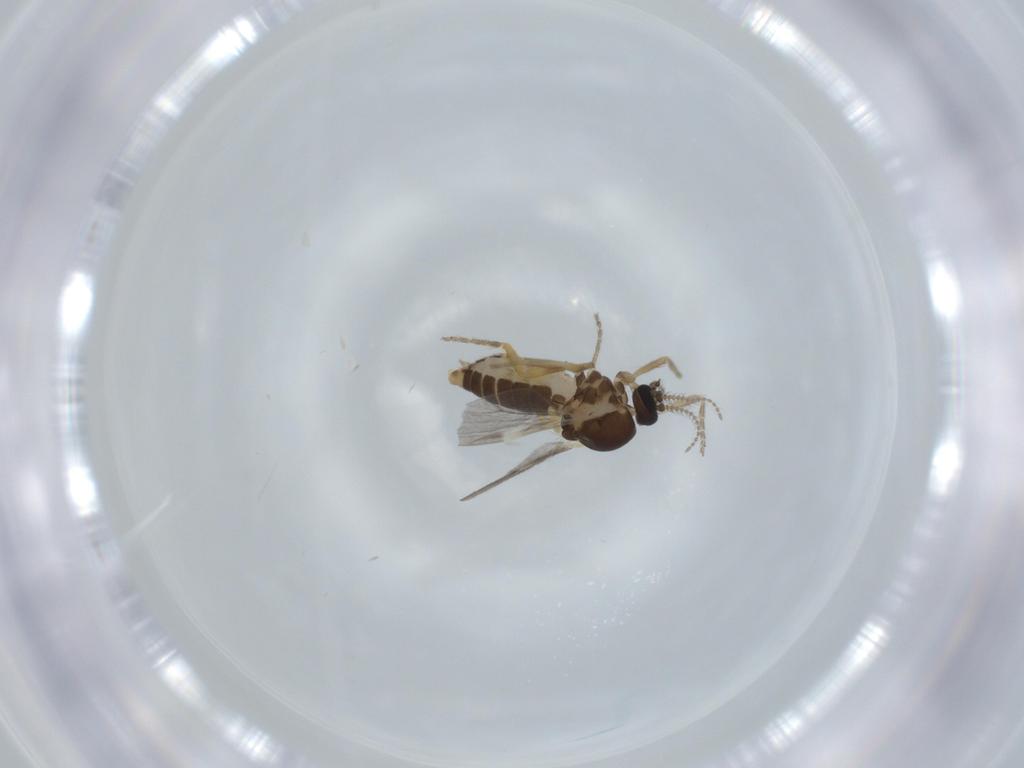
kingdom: Animalia
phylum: Arthropoda
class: Insecta
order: Diptera
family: Ceratopogonidae
